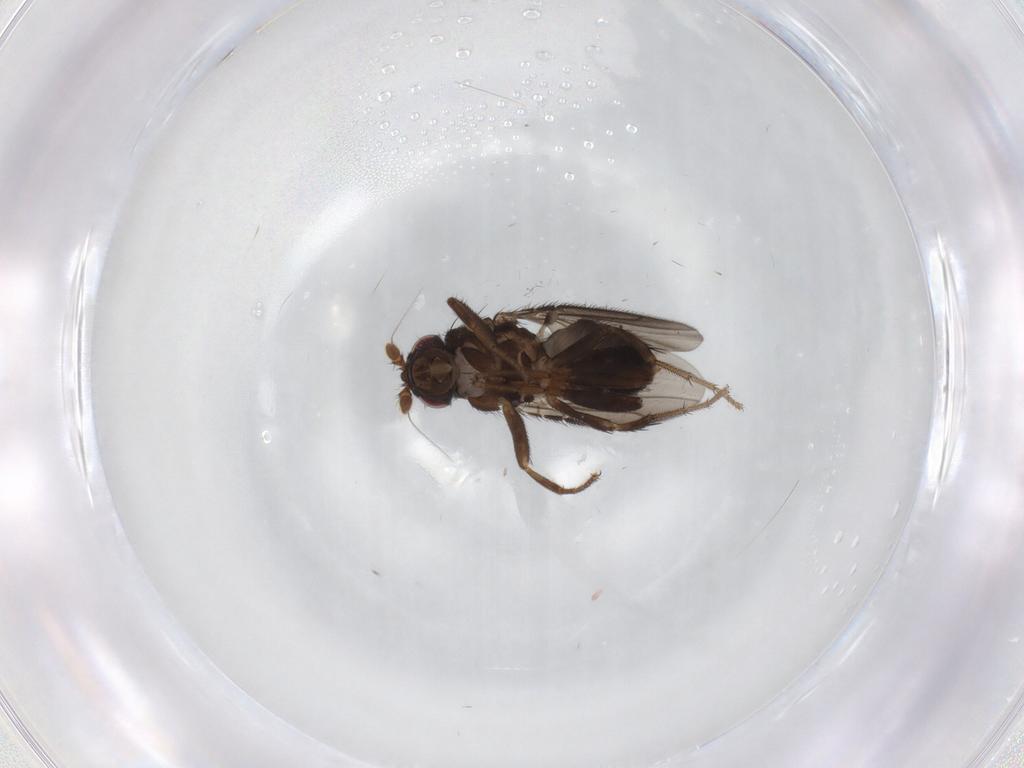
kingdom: Animalia
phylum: Arthropoda
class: Insecta
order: Diptera
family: Sphaeroceridae
